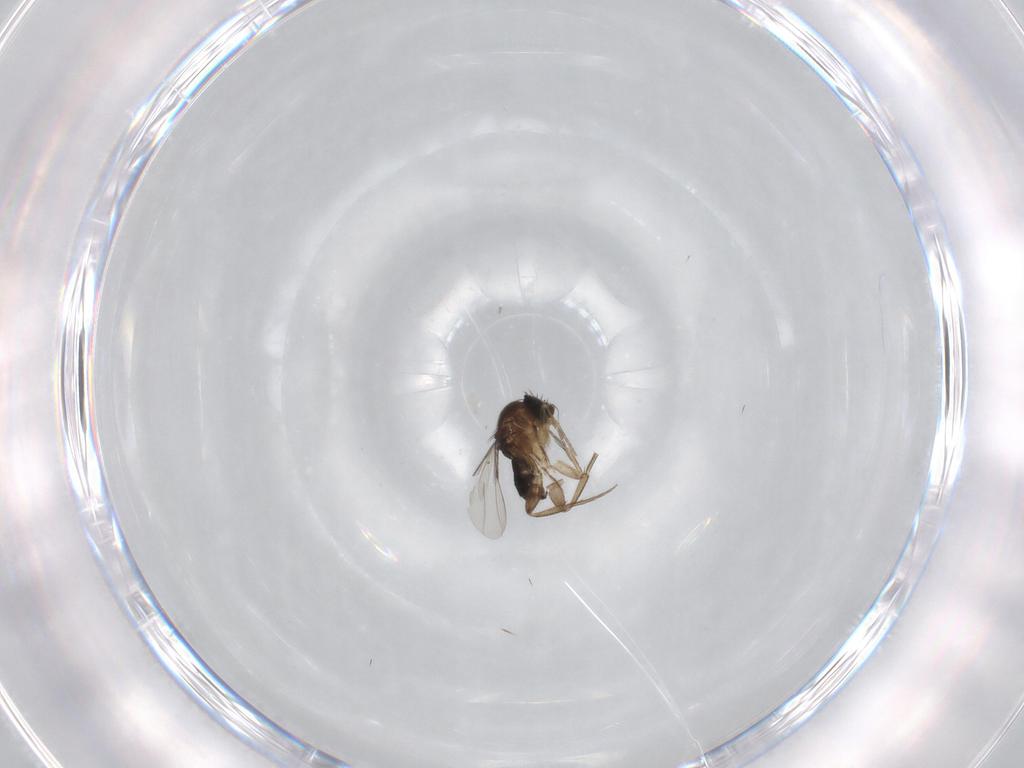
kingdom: Animalia
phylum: Arthropoda
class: Insecta
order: Diptera
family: Phoridae
